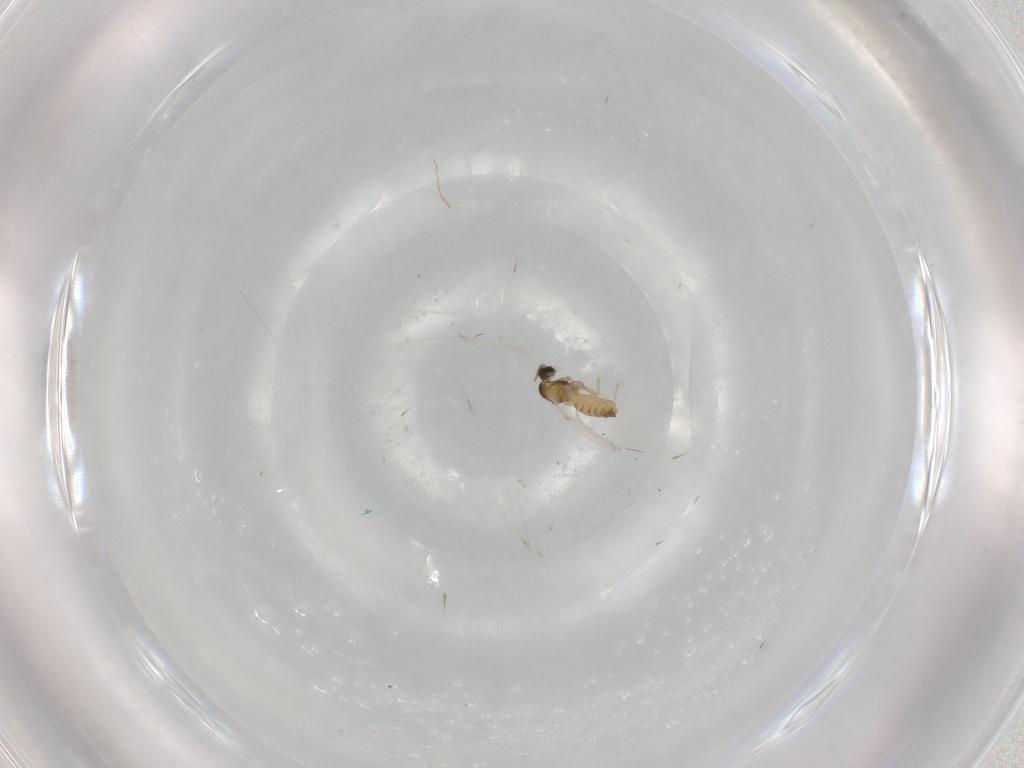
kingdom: Animalia
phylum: Arthropoda
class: Insecta
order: Diptera
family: Cecidomyiidae
